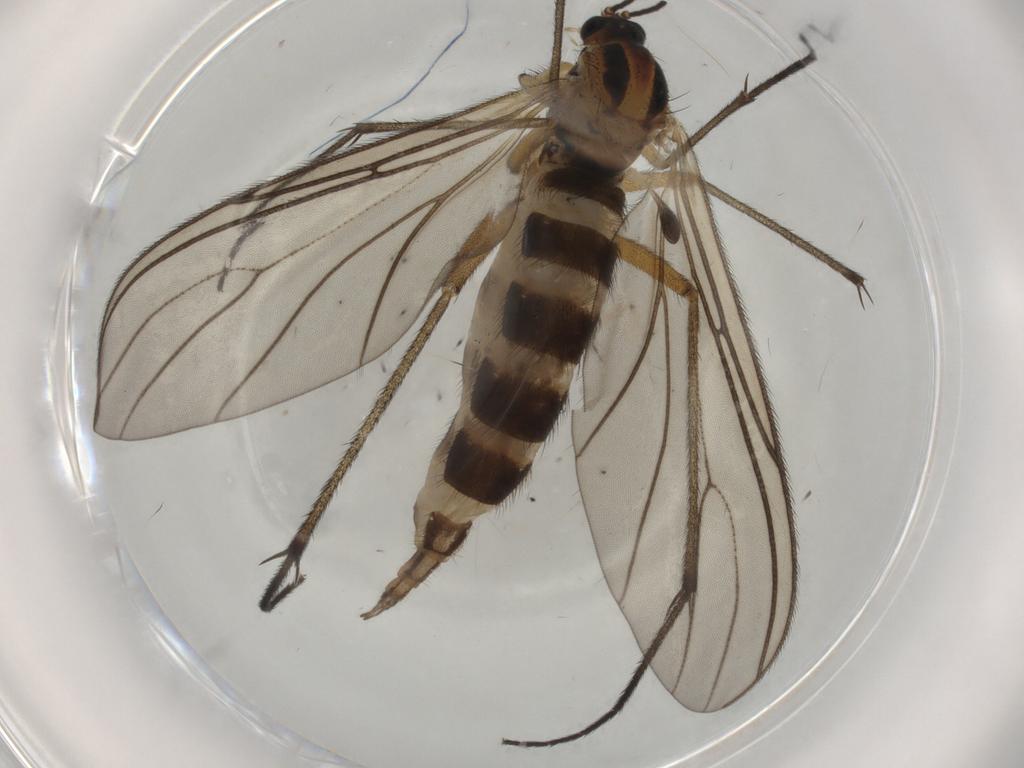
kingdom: Animalia
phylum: Arthropoda
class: Insecta
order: Diptera
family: Sciaridae
